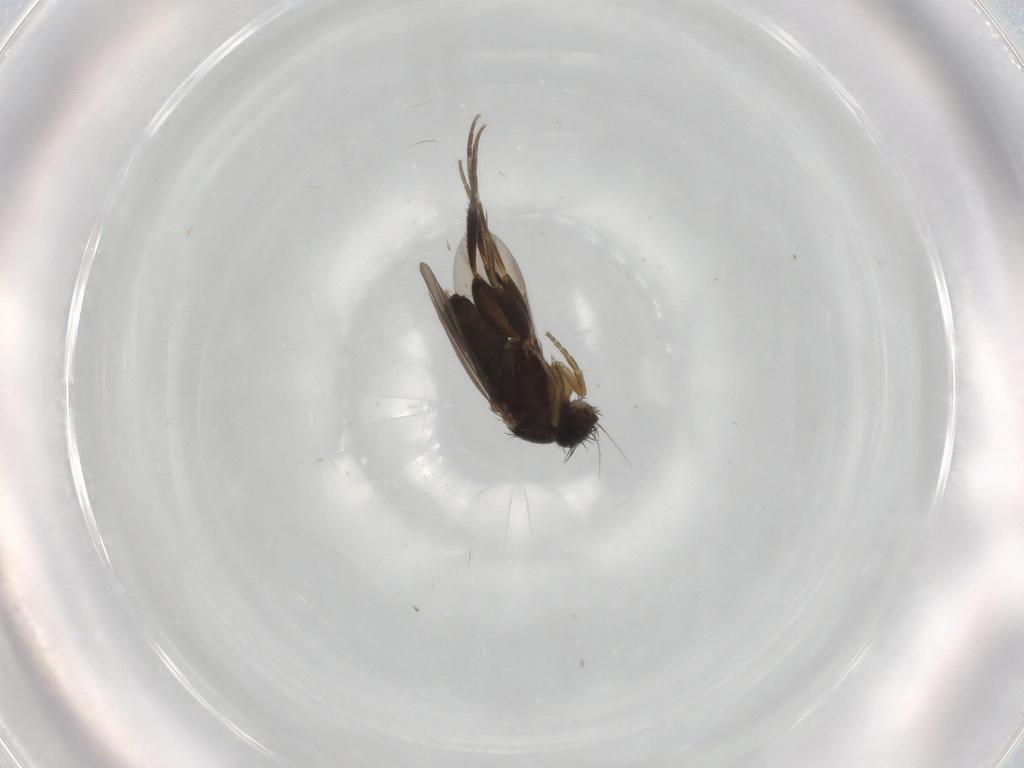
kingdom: Animalia
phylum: Arthropoda
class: Insecta
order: Diptera
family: Phoridae
